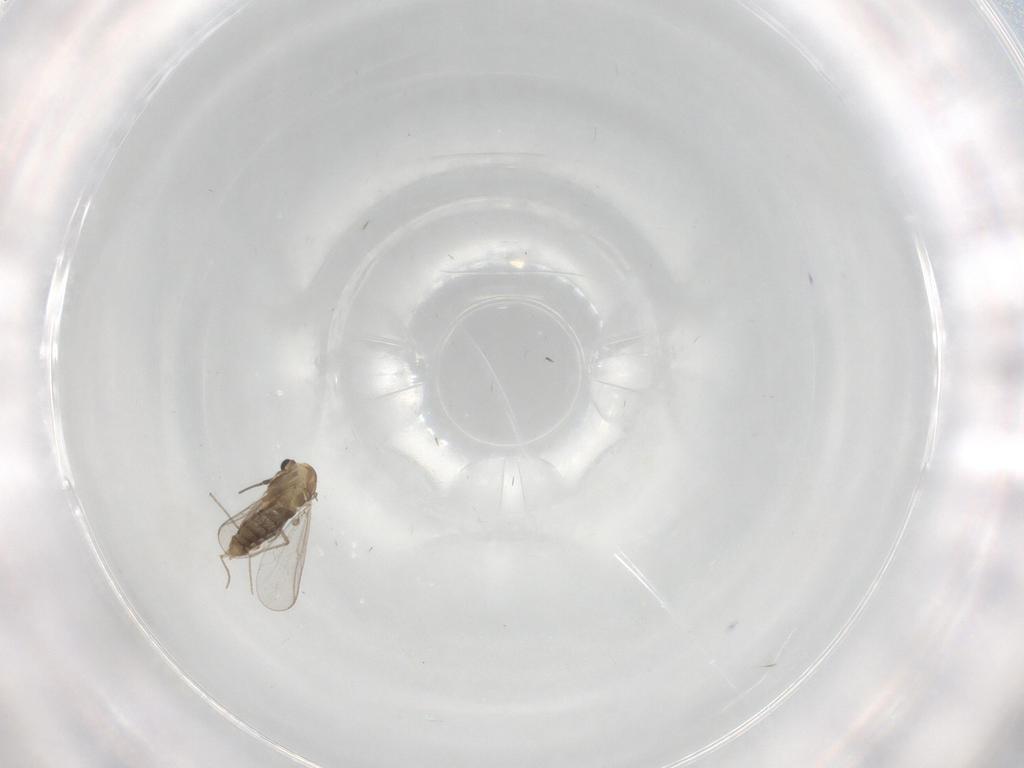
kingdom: Animalia
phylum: Arthropoda
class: Insecta
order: Diptera
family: Chironomidae
